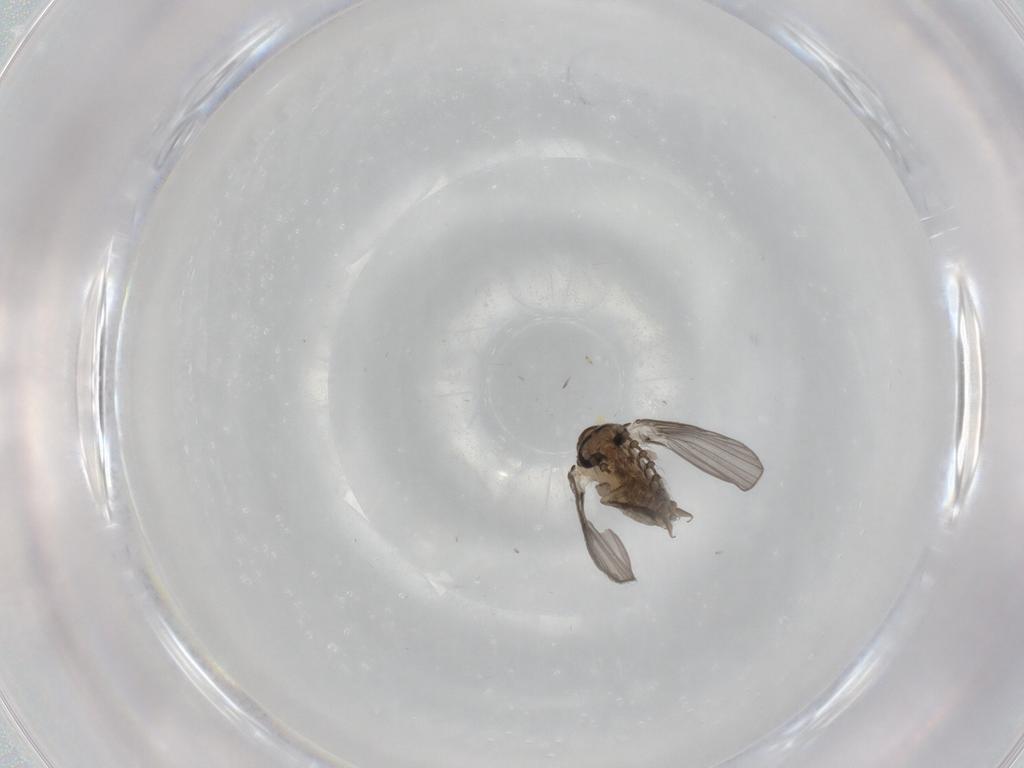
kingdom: Animalia
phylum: Arthropoda
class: Insecta
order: Diptera
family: Psychodidae
